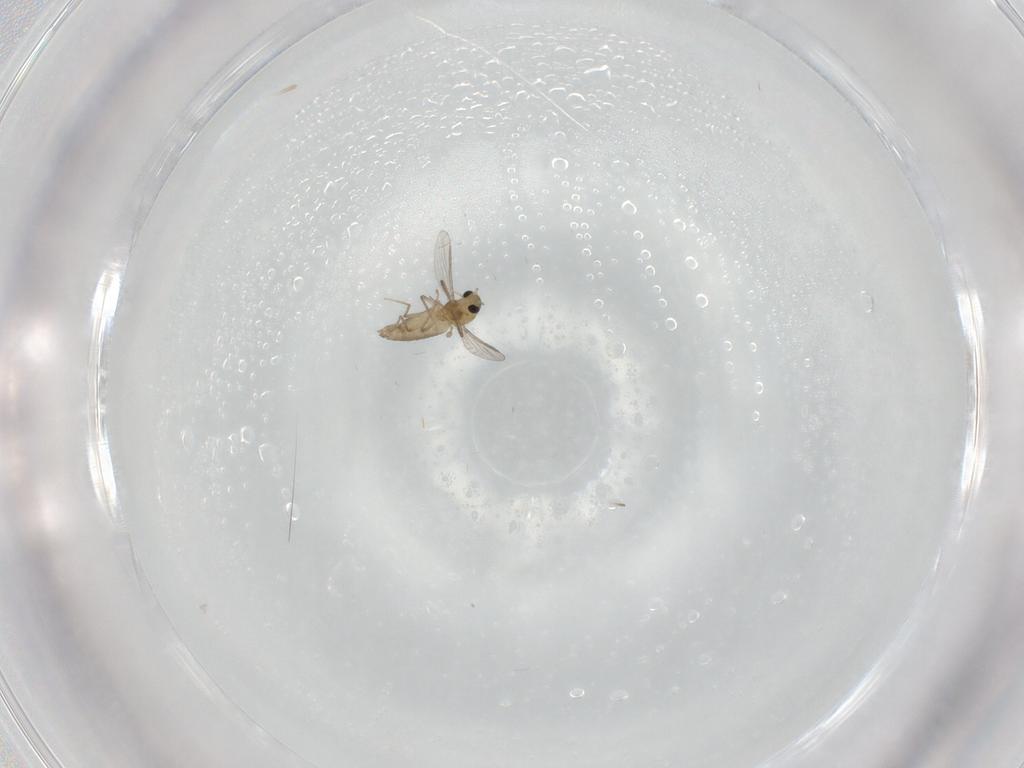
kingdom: Animalia
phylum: Arthropoda
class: Insecta
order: Diptera
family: Chironomidae
